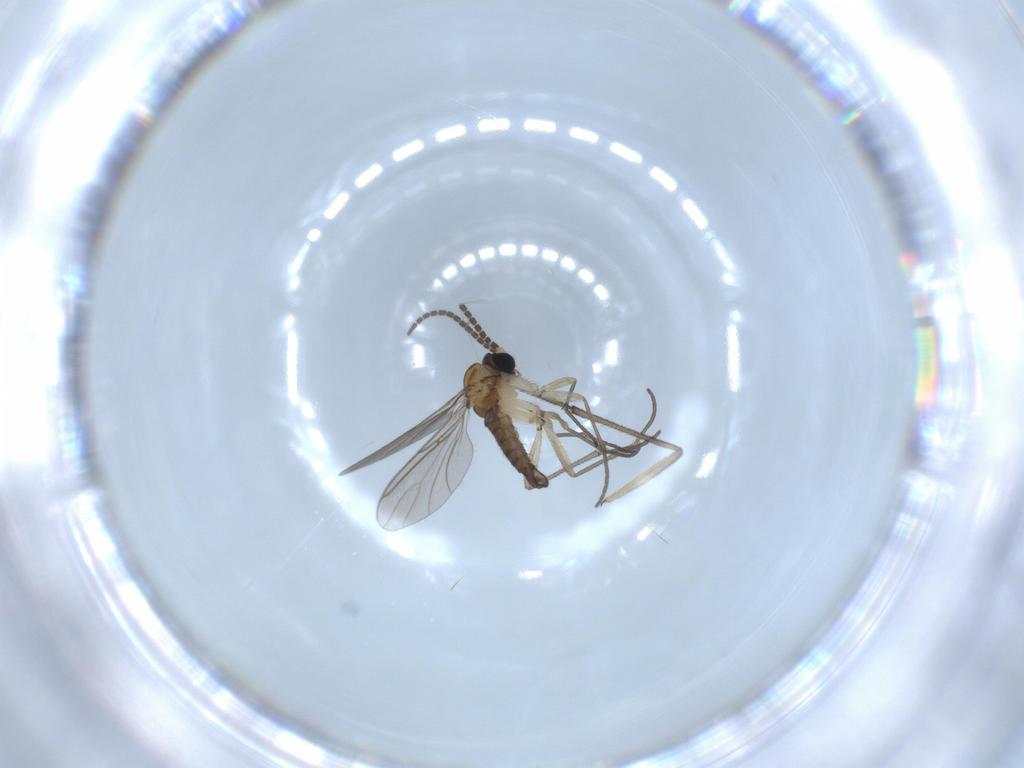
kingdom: Animalia
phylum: Arthropoda
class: Insecta
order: Diptera
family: Sciaridae
